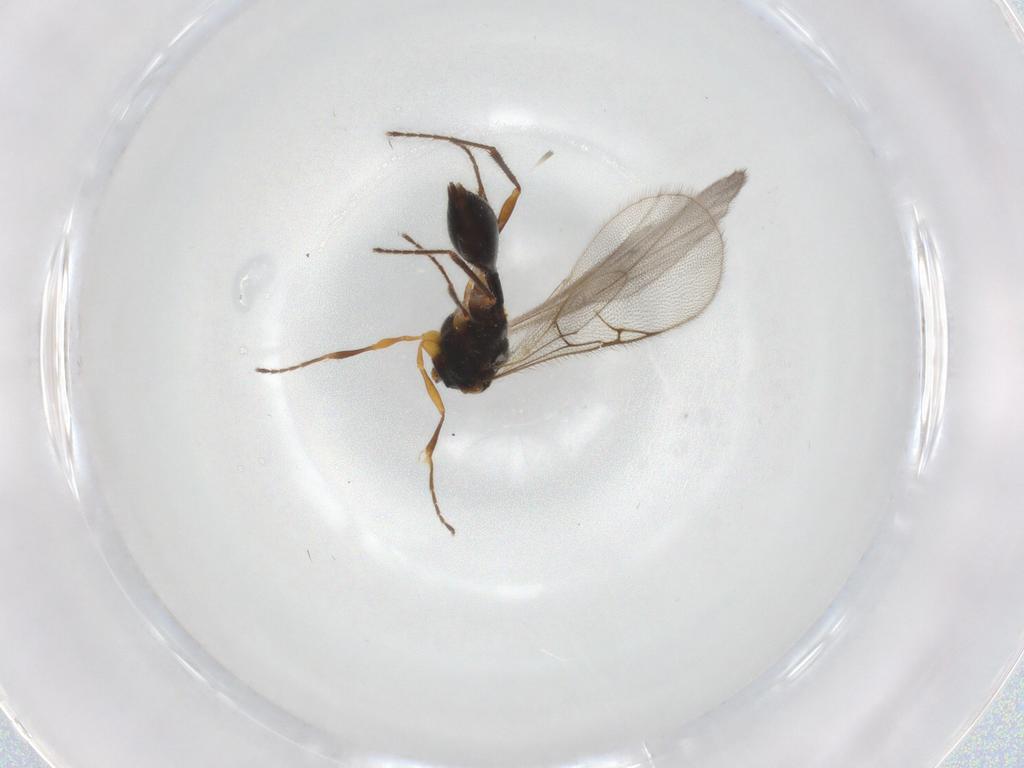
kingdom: Animalia
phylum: Arthropoda
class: Insecta
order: Hymenoptera
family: Diapriidae
